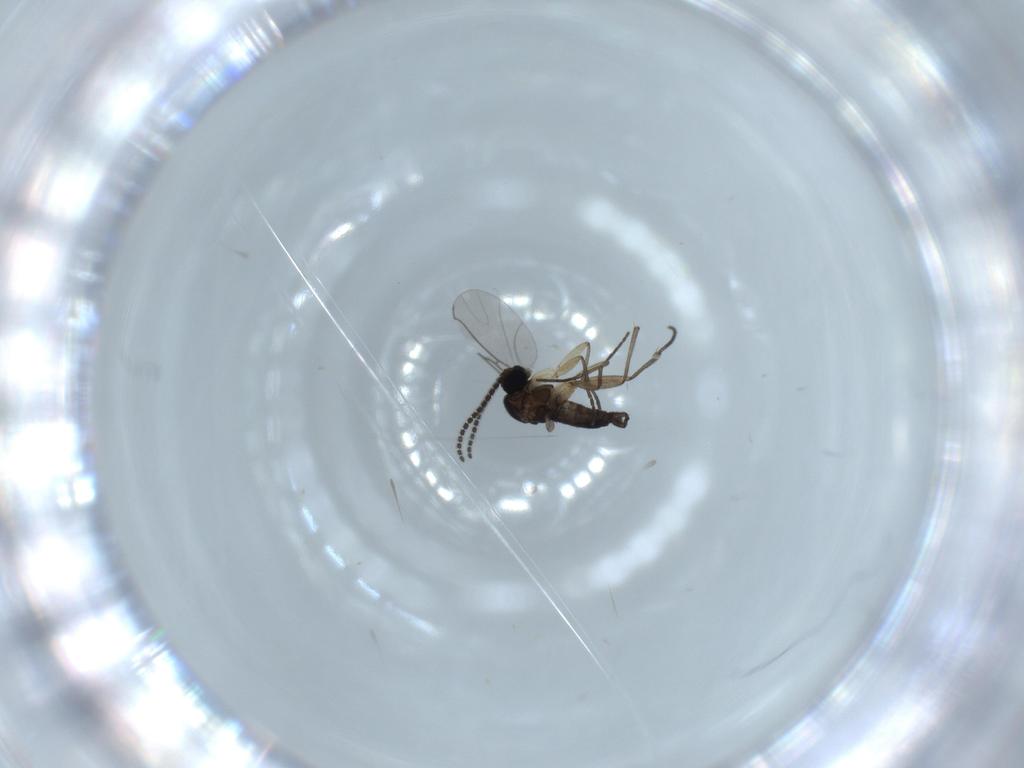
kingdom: Animalia
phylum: Arthropoda
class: Insecta
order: Diptera
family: Sciaridae
